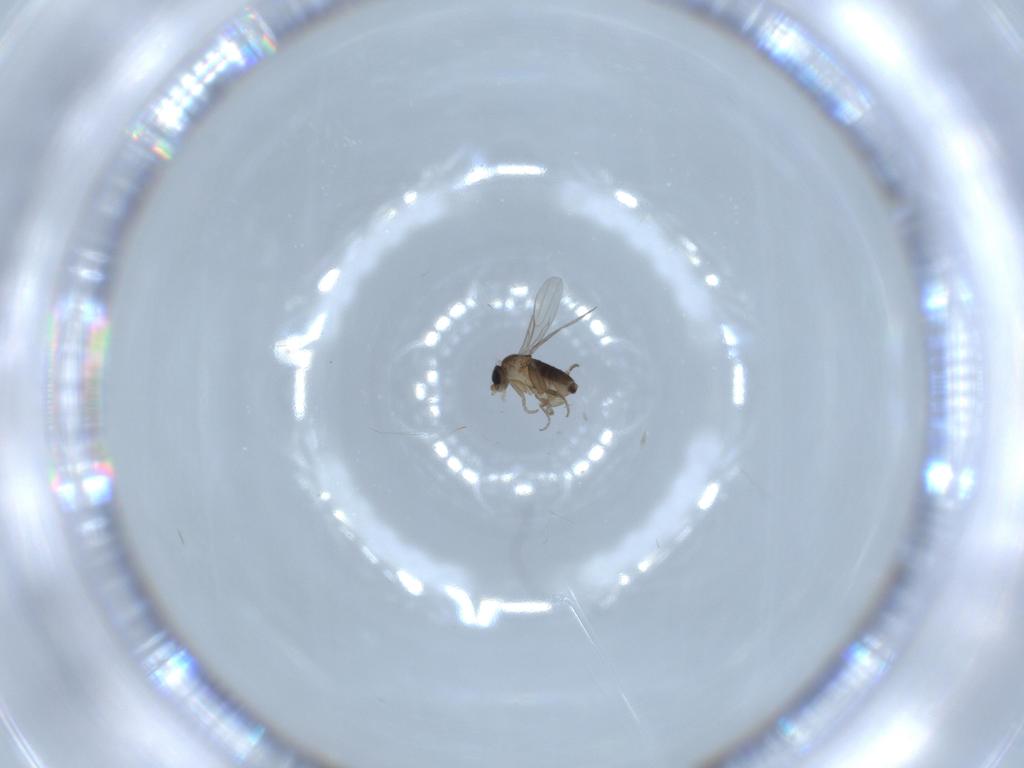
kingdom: Animalia
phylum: Arthropoda
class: Insecta
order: Diptera
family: Phoridae
